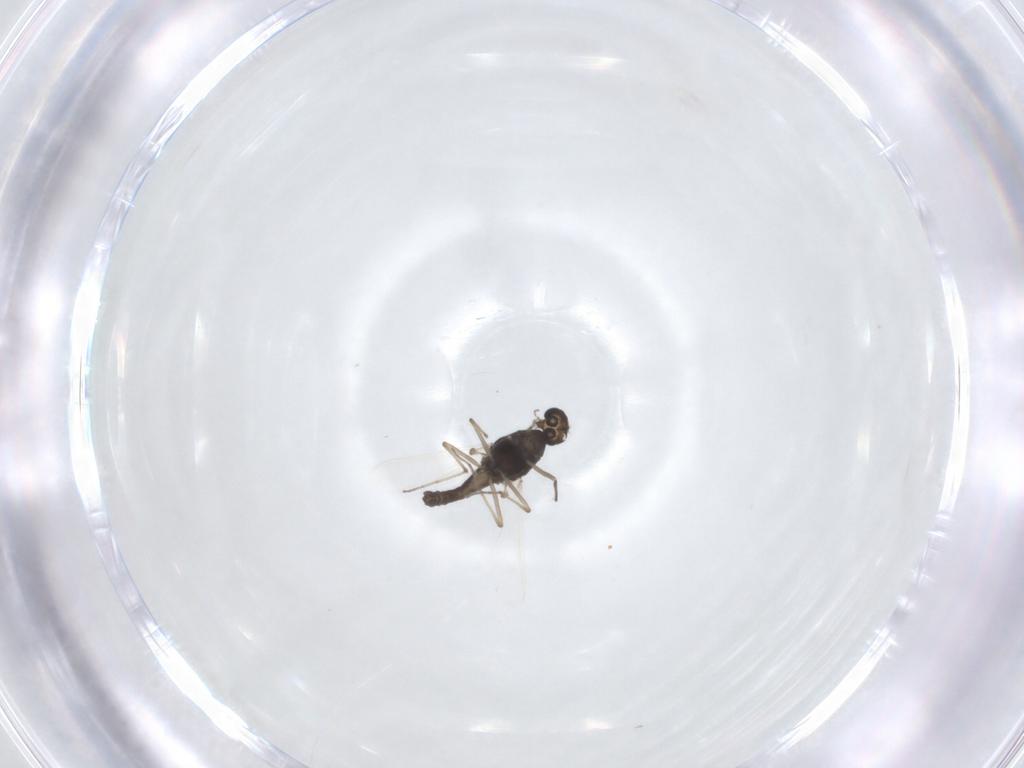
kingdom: Animalia
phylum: Arthropoda
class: Insecta
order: Diptera
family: Chironomidae
